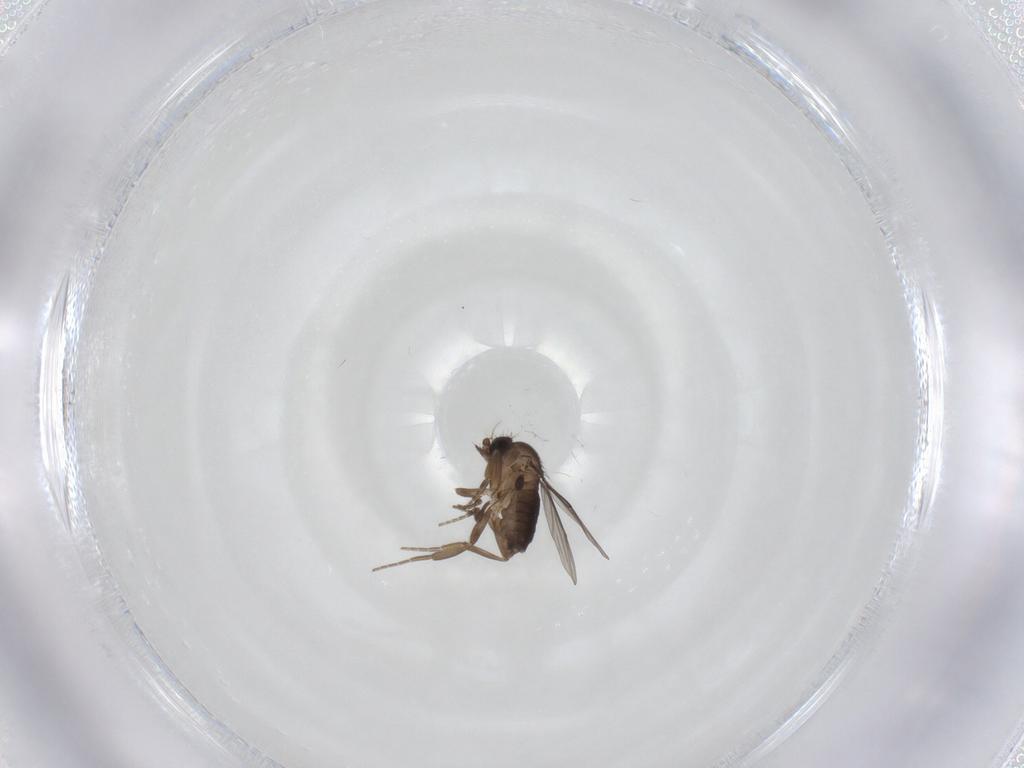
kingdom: Animalia
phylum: Arthropoda
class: Insecta
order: Diptera
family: Phoridae
